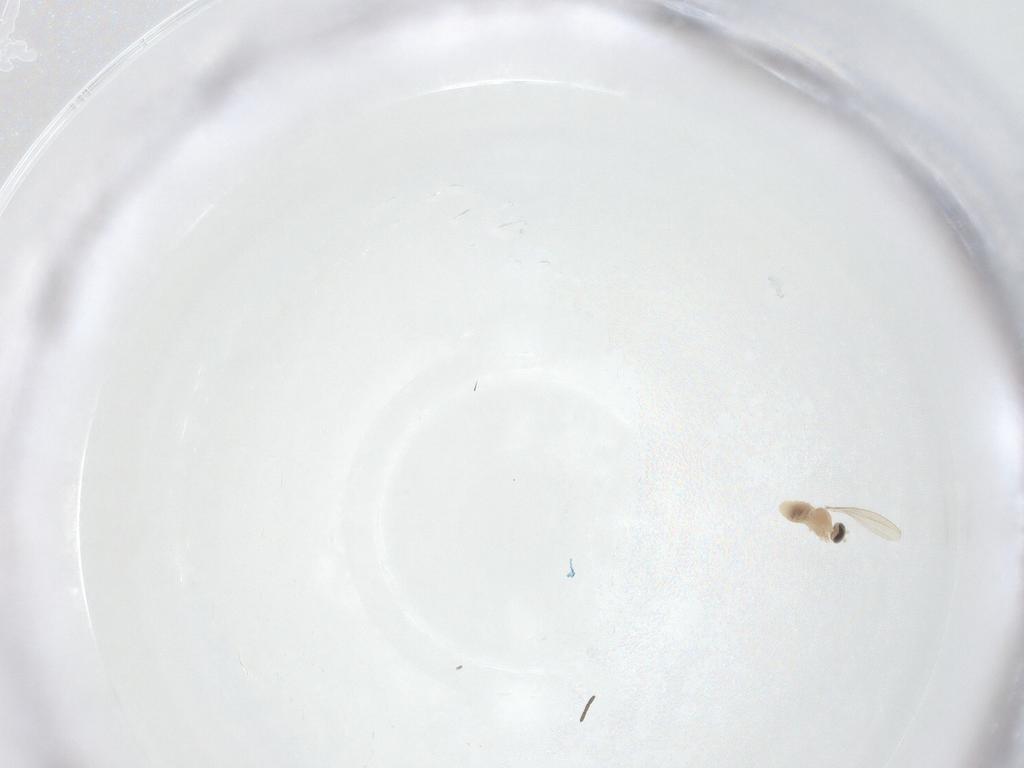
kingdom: Animalia
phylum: Arthropoda
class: Insecta
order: Diptera
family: Cecidomyiidae
